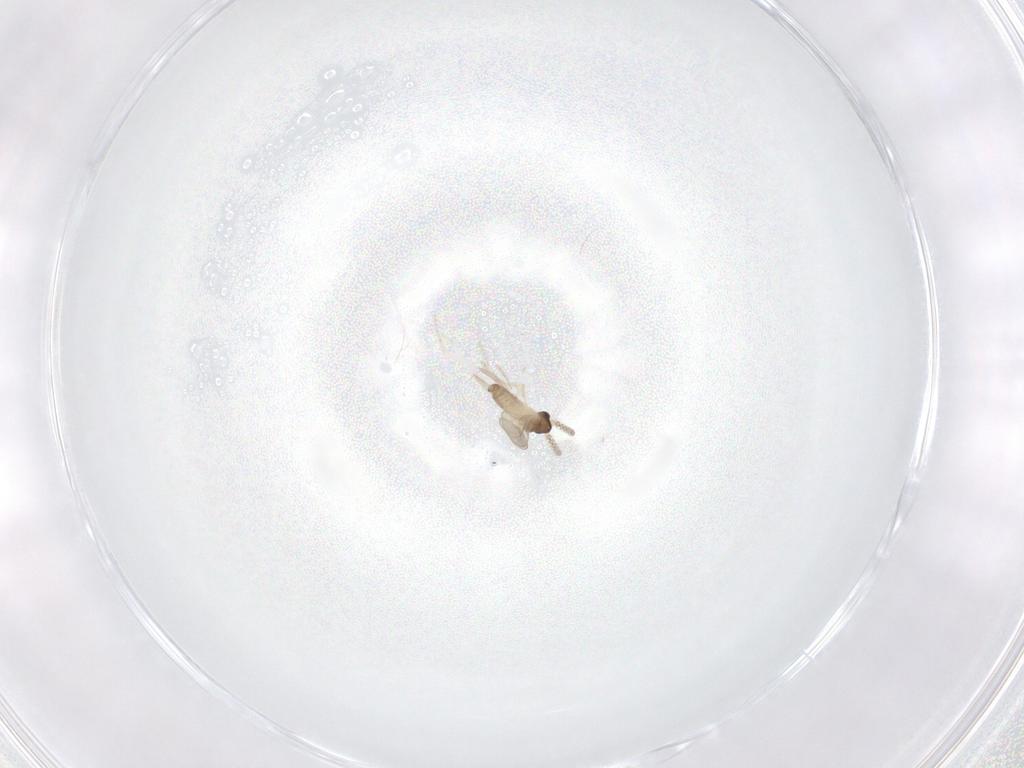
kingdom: Animalia
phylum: Arthropoda
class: Insecta
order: Diptera
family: Cecidomyiidae
